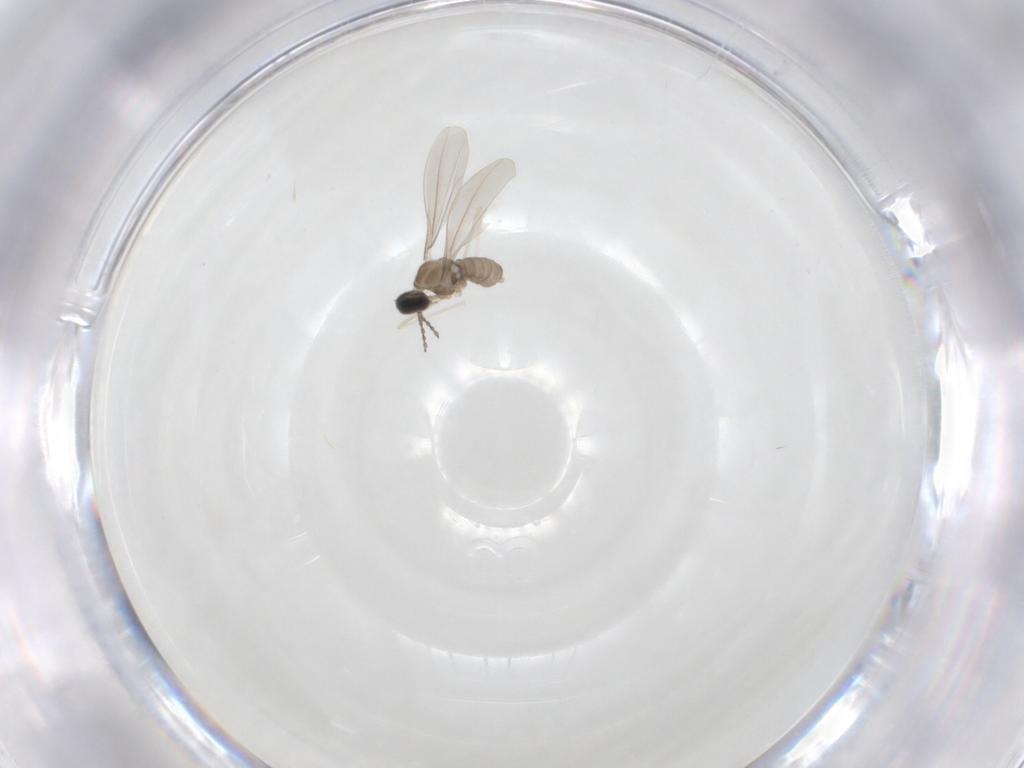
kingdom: Animalia
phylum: Arthropoda
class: Insecta
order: Diptera
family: Cecidomyiidae
